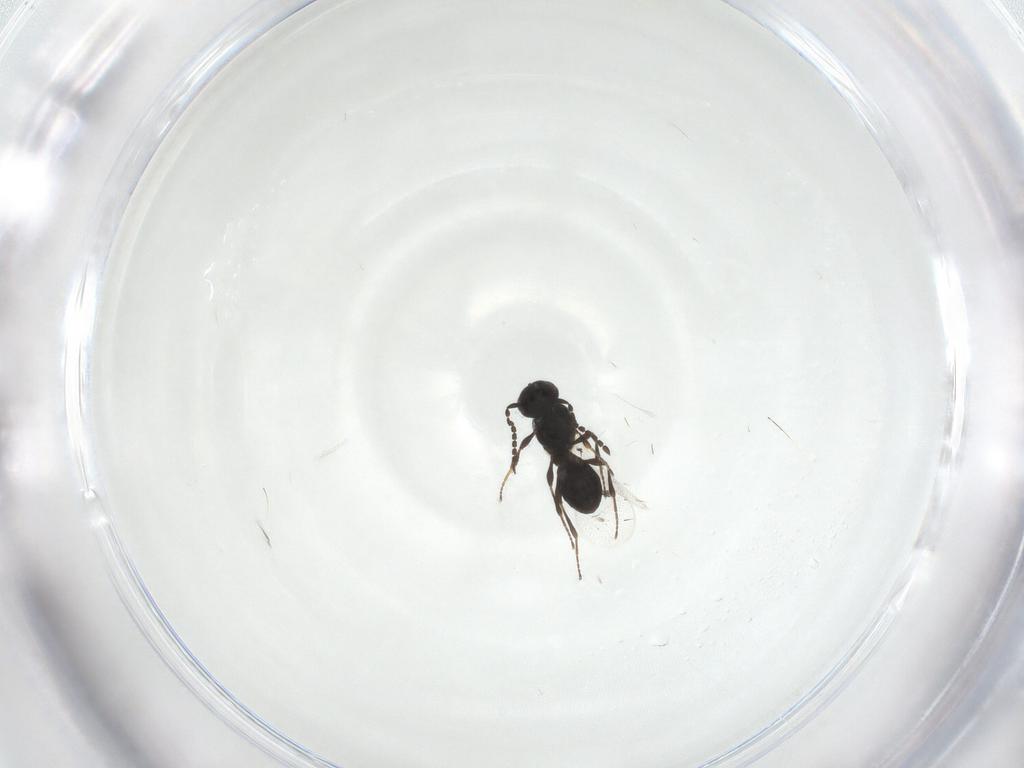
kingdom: Animalia
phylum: Arthropoda
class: Insecta
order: Hymenoptera
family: Platygastridae
